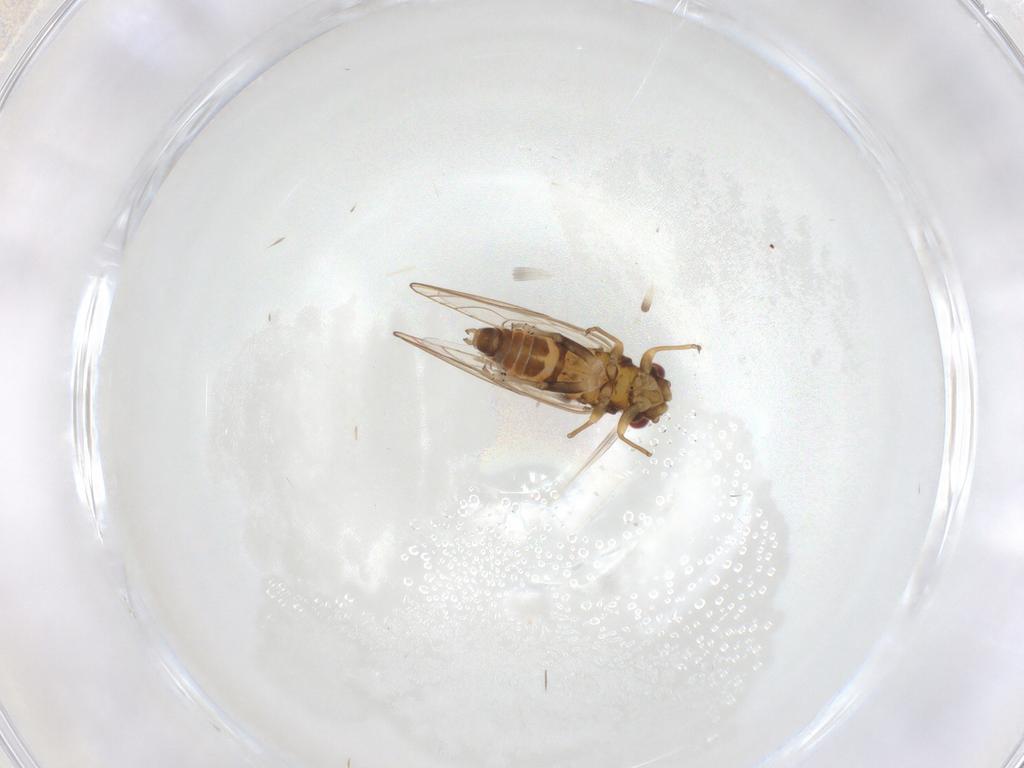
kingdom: Animalia
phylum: Arthropoda
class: Insecta
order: Hemiptera
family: Psyllidae
